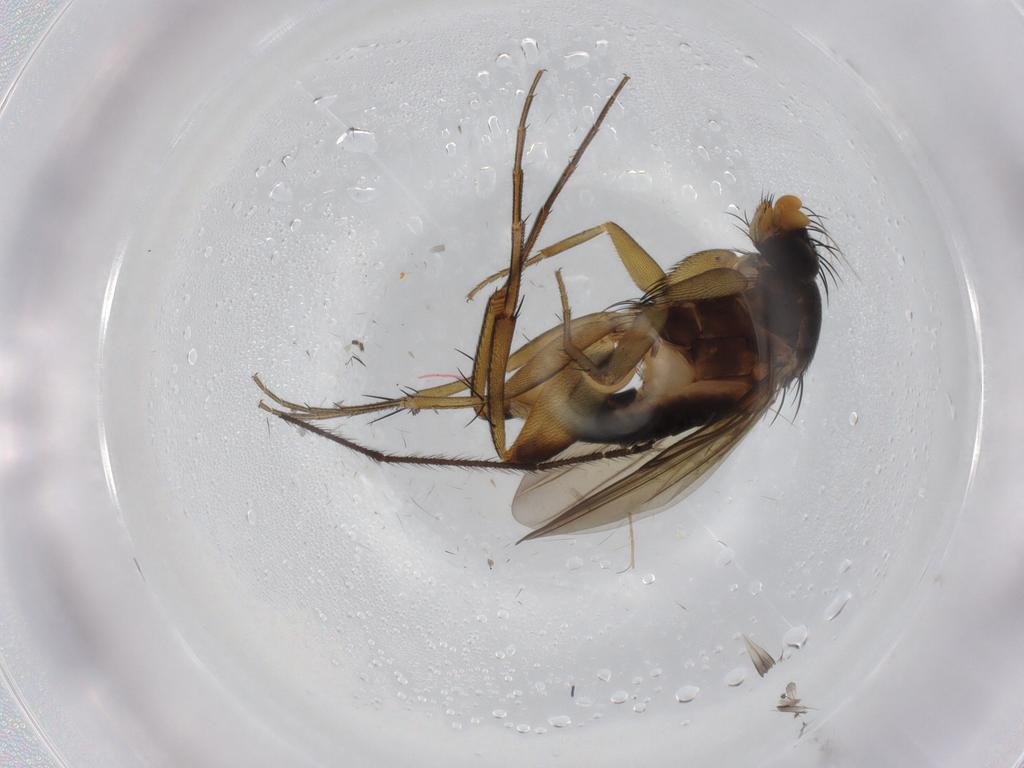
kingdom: Animalia
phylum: Arthropoda
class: Insecta
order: Diptera
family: Phoridae
